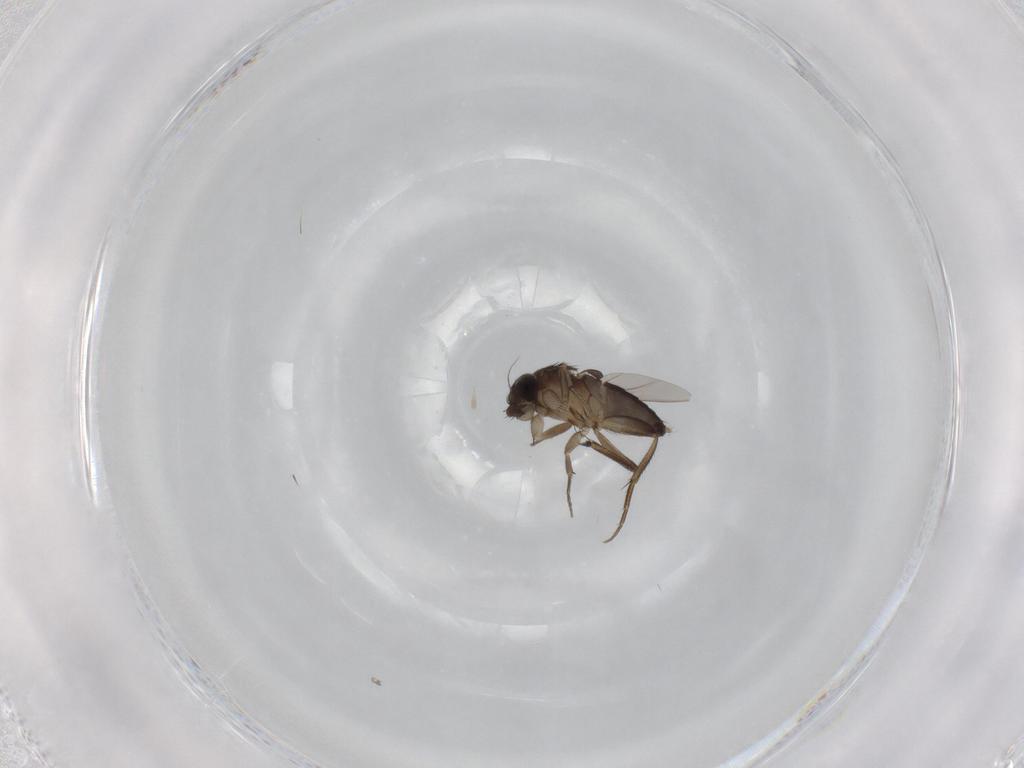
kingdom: Animalia
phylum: Arthropoda
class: Insecta
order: Diptera
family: Phoridae
